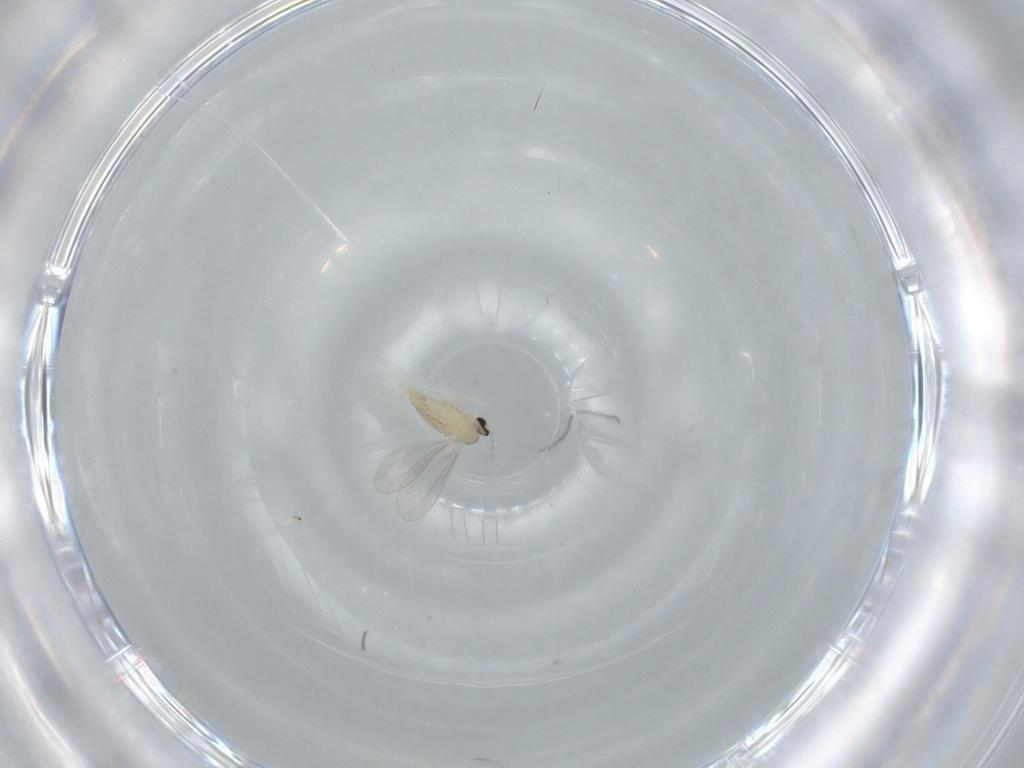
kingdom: Animalia
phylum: Arthropoda
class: Insecta
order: Diptera
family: Cecidomyiidae
